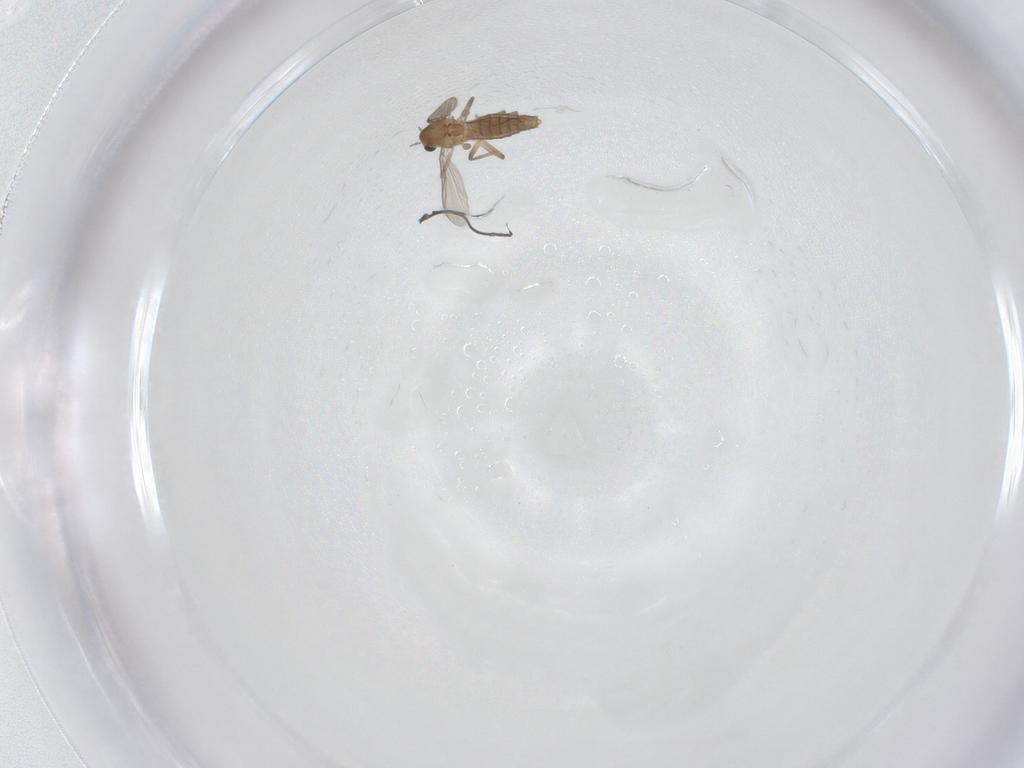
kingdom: Animalia
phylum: Arthropoda
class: Insecta
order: Diptera
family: Chironomidae
